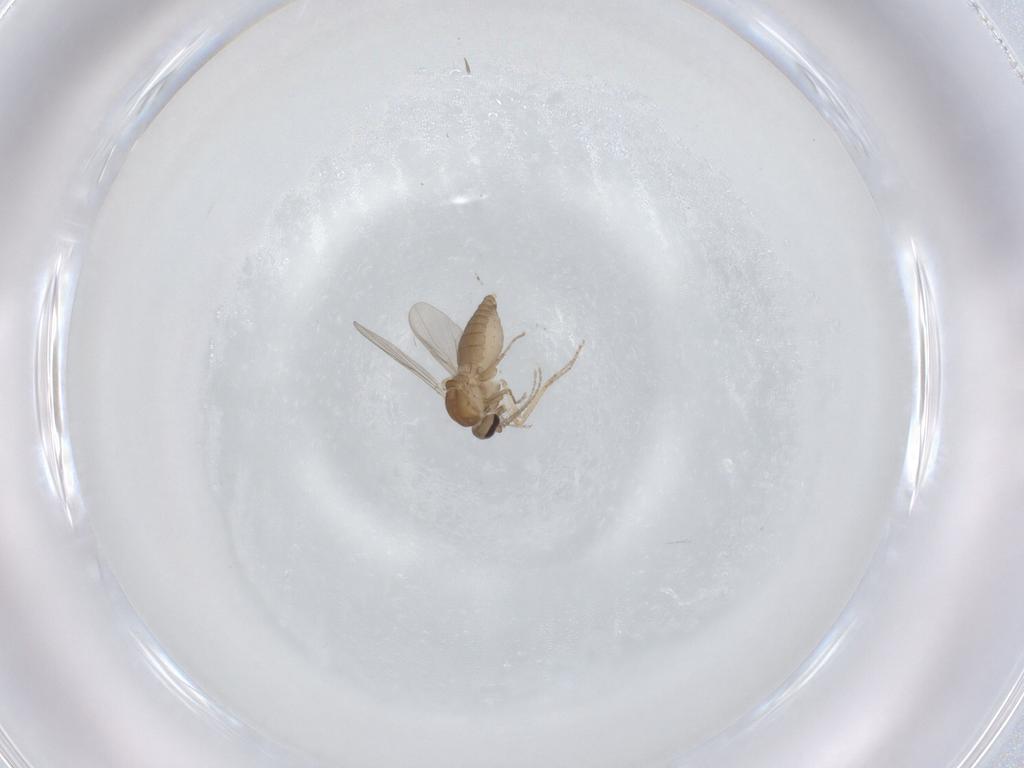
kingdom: Animalia
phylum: Arthropoda
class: Insecta
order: Diptera
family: Ceratopogonidae
